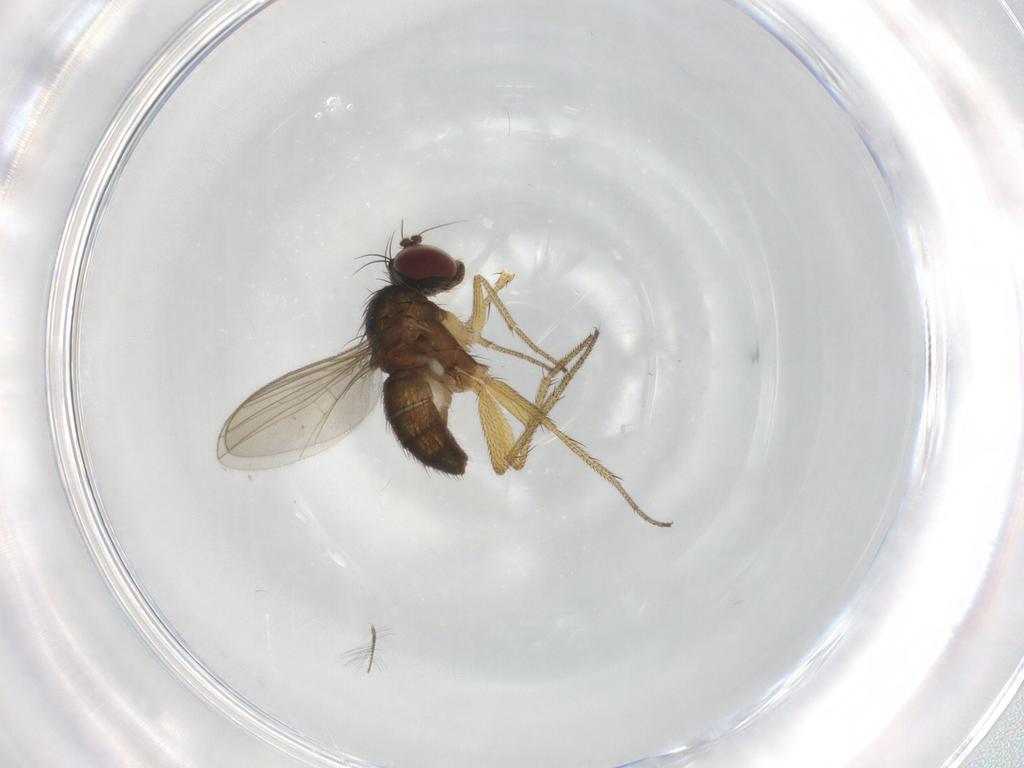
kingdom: Animalia
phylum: Arthropoda
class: Insecta
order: Diptera
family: Dolichopodidae
